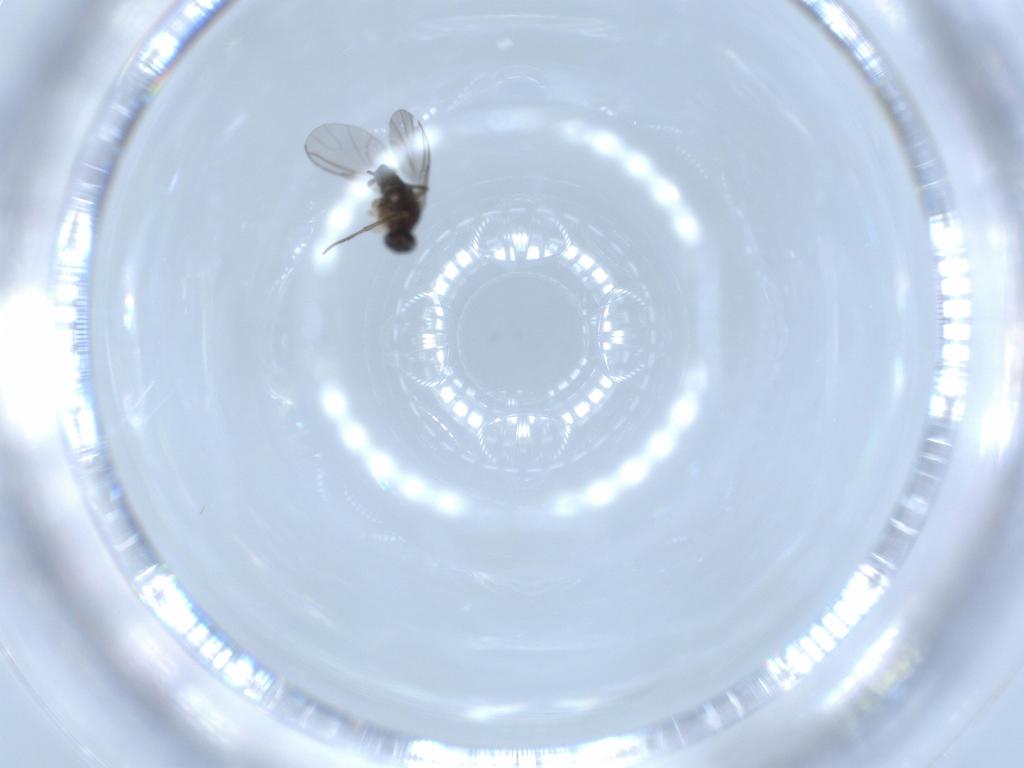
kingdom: Animalia
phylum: Arthropoda
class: Insecta
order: Diptera
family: Sciaridae
